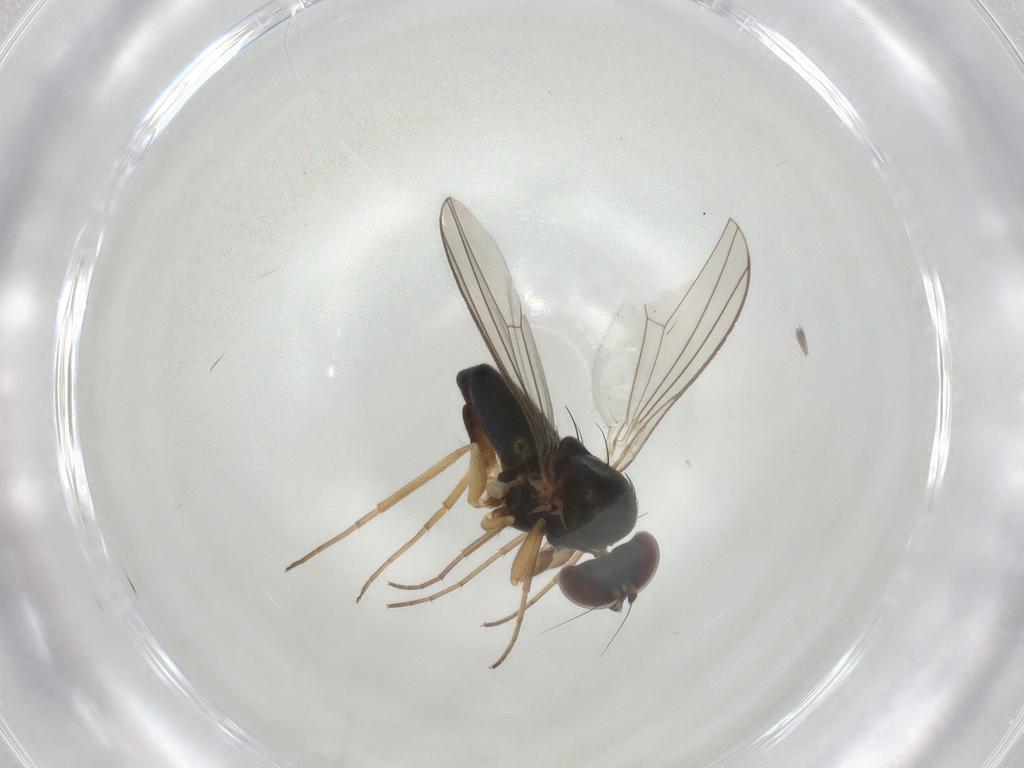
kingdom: Animalia
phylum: Arthropoda
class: Insecta
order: Diptera
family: Dolichopodidae
